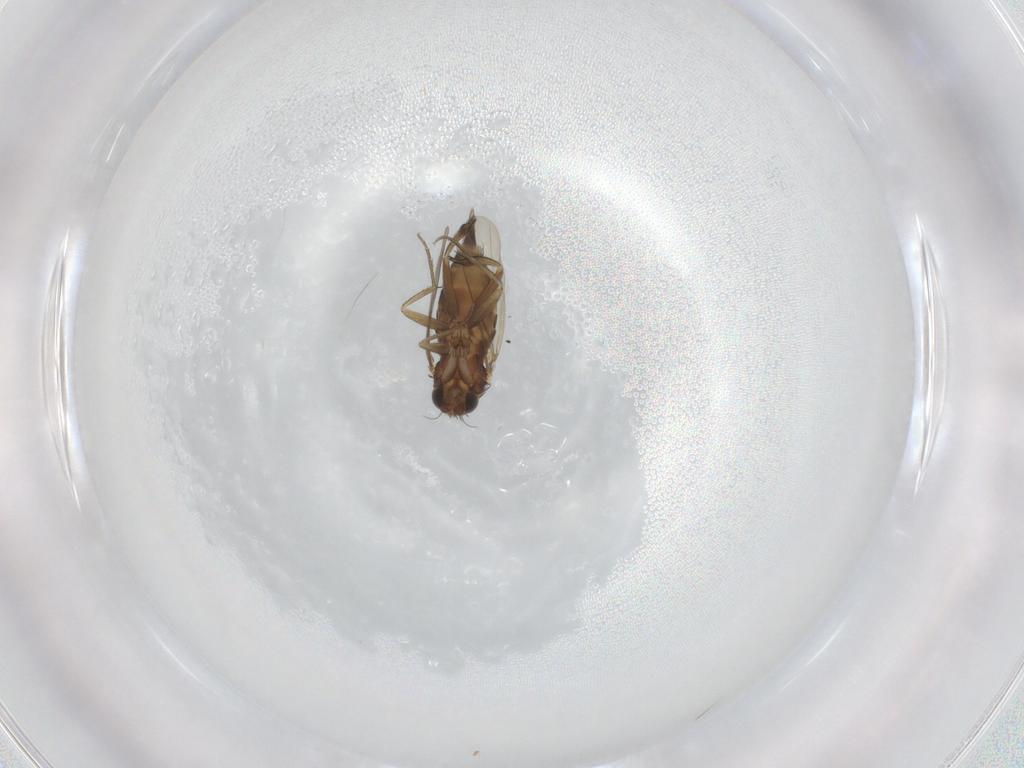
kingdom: Animalia
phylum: Arthropoda
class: Insecta
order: Diptera
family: Phoridae
